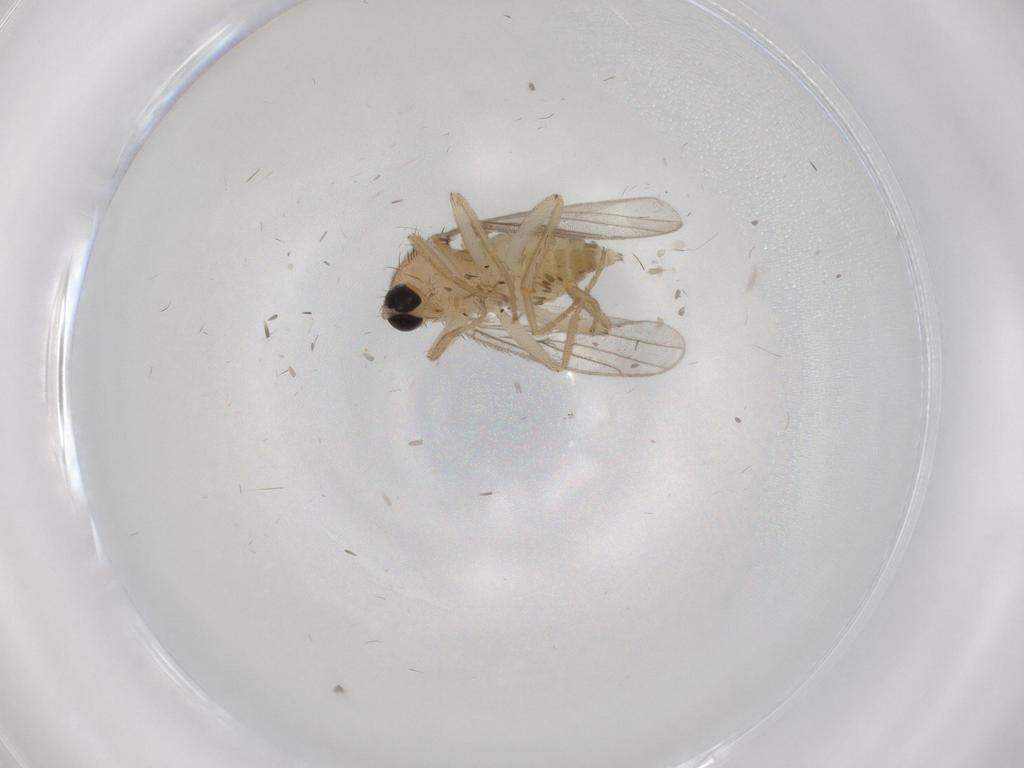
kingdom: Animalia
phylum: Arthropoda
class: Insecta
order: Diptera
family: Hybotidae
